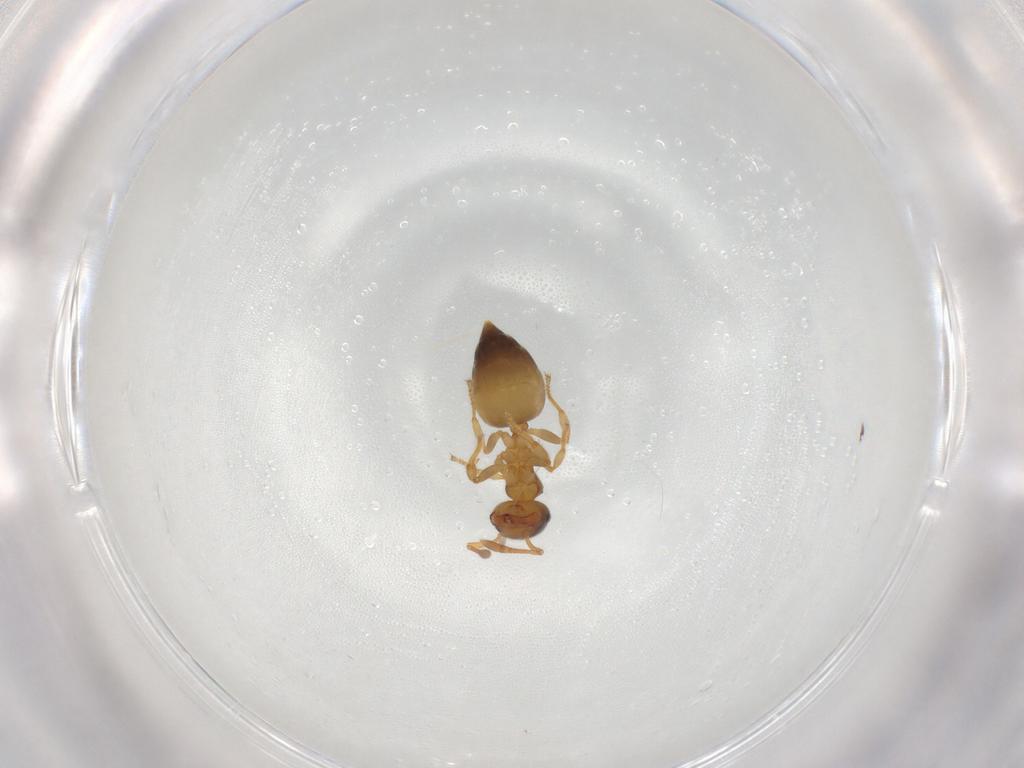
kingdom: Animalia
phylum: Arthropoda
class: Insecta
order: Hymenoptera
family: Formicidae
